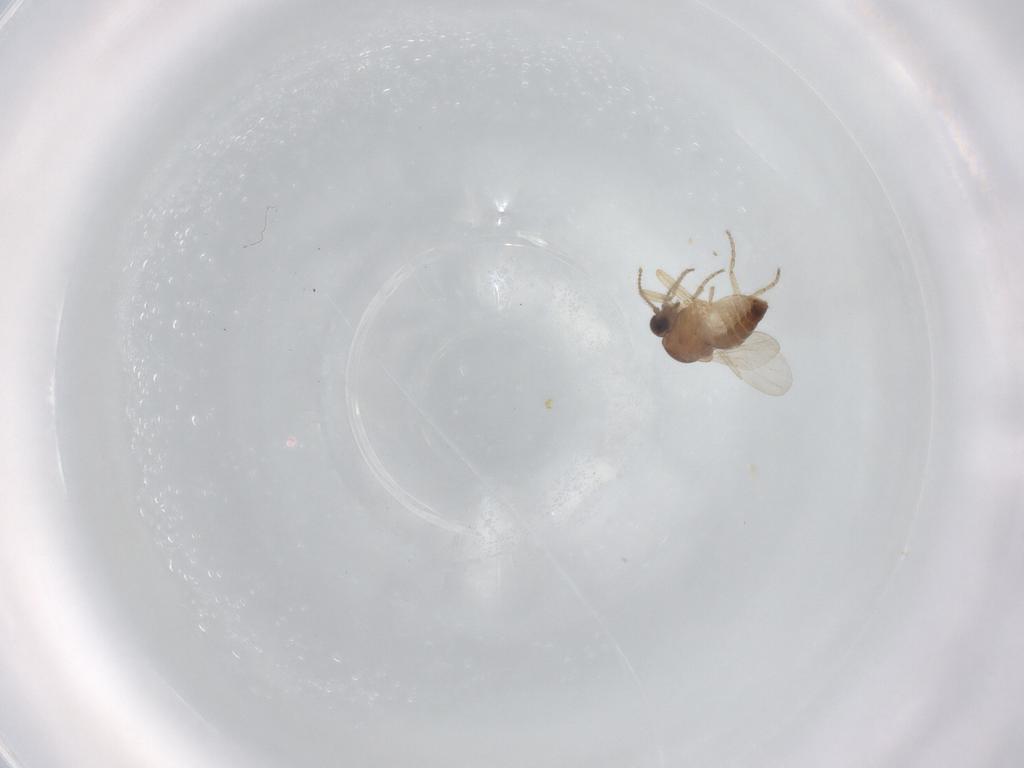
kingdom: Animalia
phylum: Arthropoda
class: Insecta
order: Diptera
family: Ceratopogonidae
